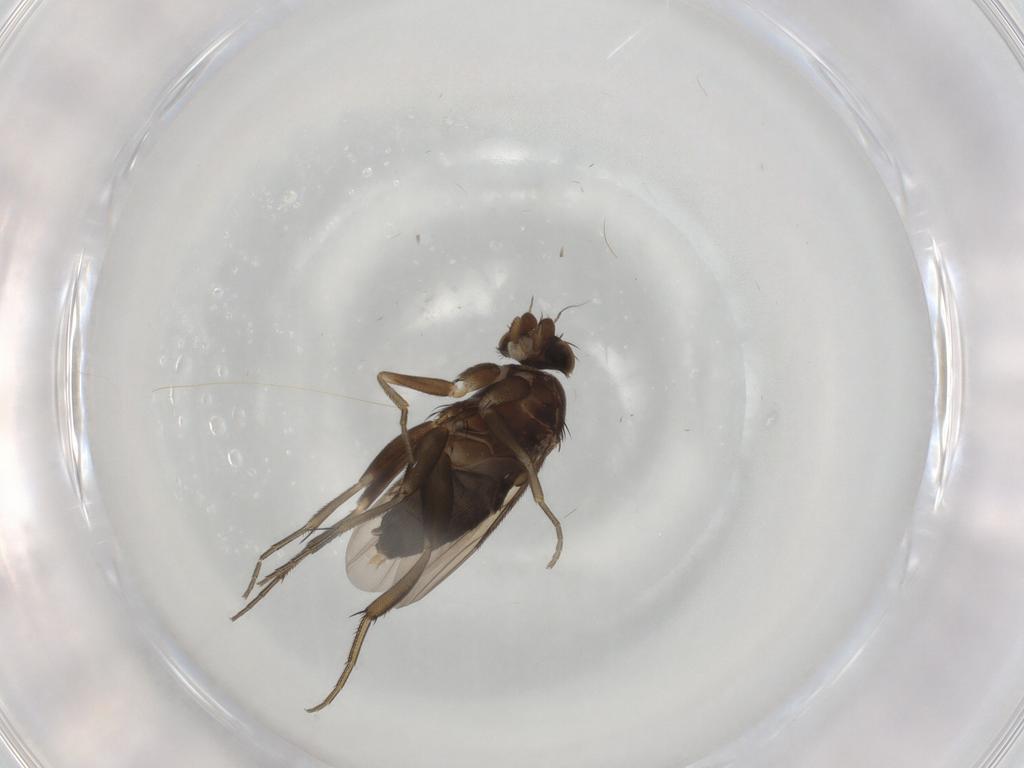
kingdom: Animalia
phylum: Arthropoda
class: Insecta
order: Diptera
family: Phoridae
